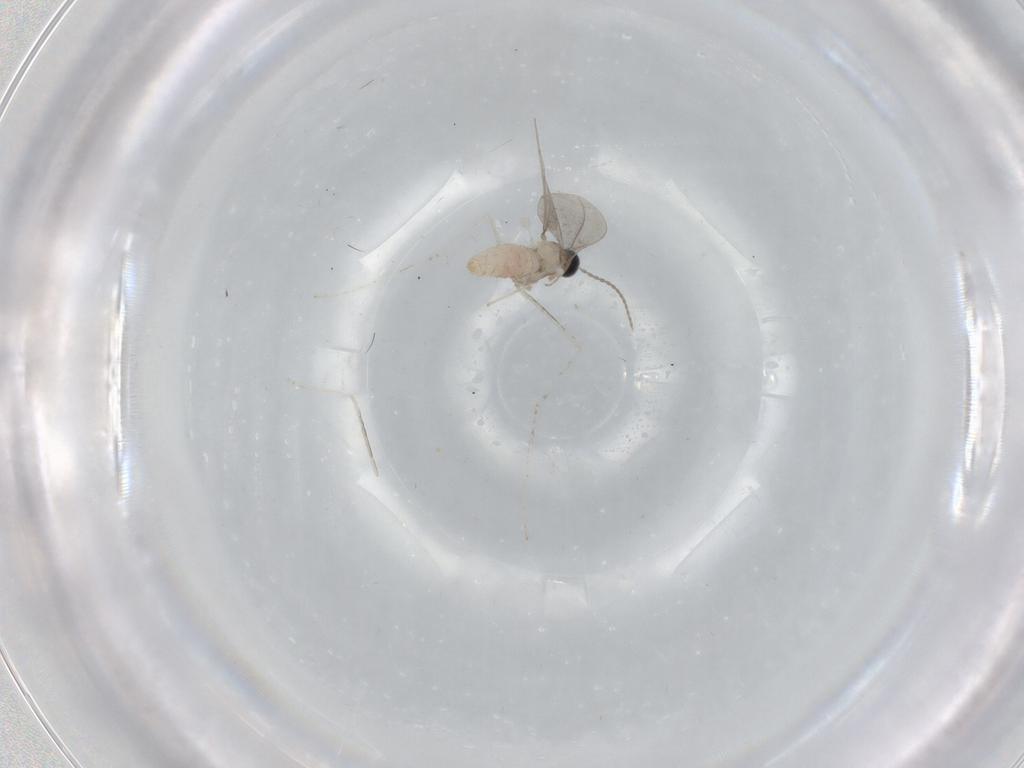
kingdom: Animalia
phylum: Arthropoda
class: Insecta
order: Diptera
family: Cecidomyiidae
